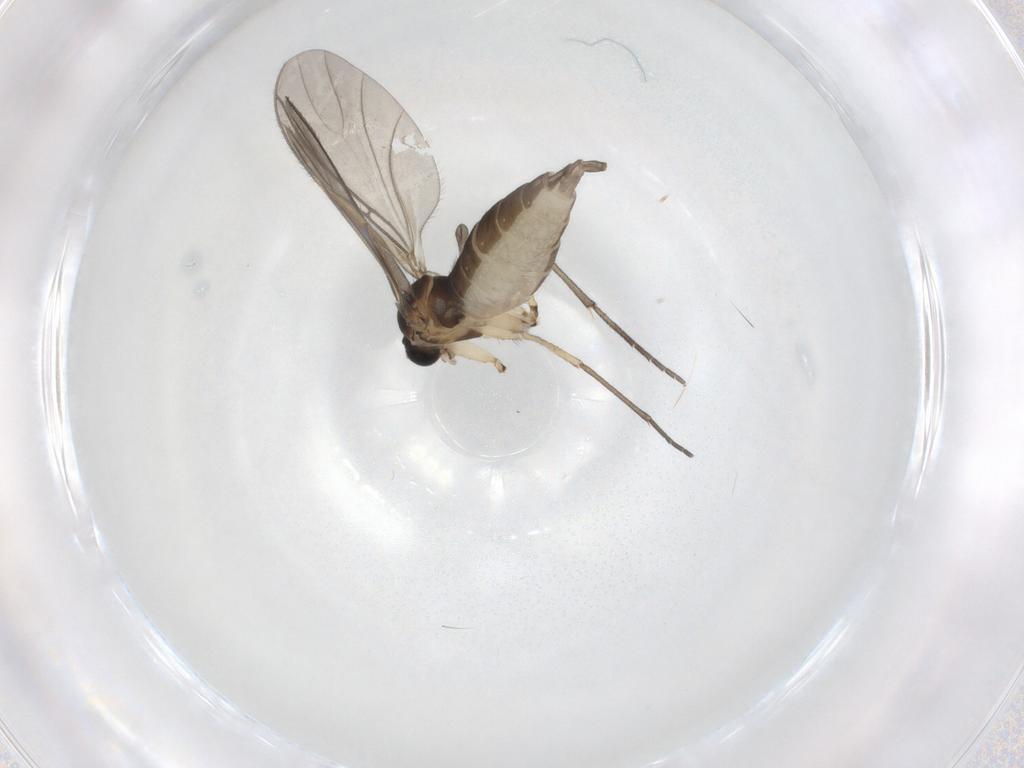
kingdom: Animalia
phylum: Arthropoda
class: Insecta
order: Diptera
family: Sciaridae
